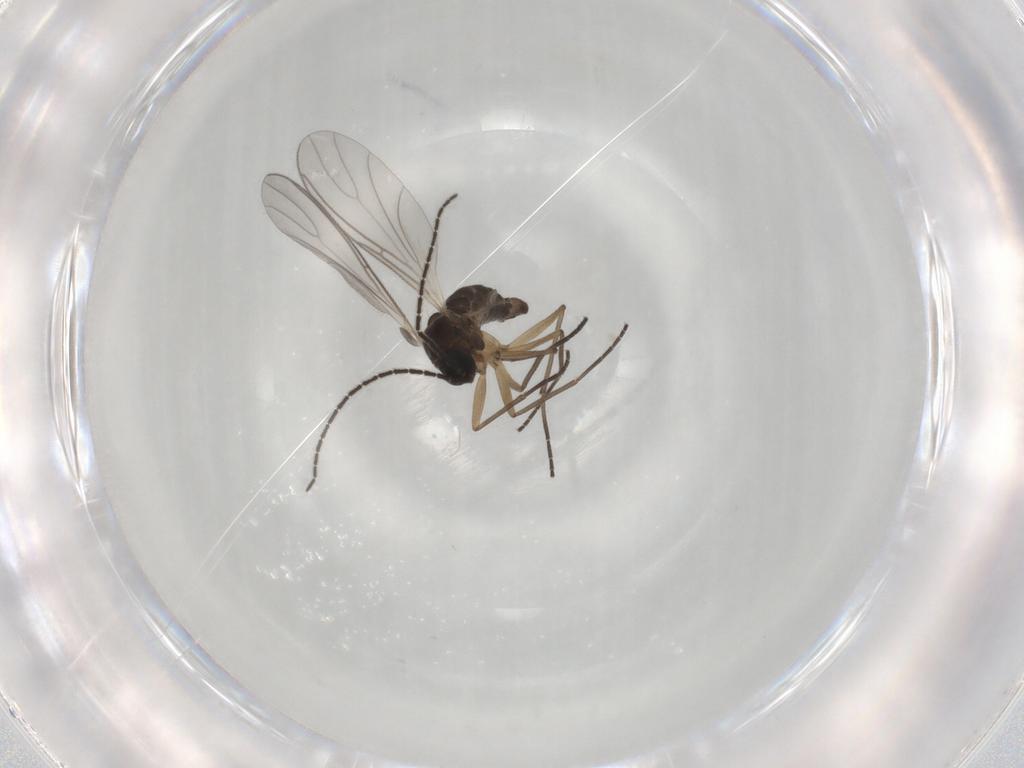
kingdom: Animalia
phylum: Arthropoda
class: Insecta
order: Diptera
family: Sciaridae
